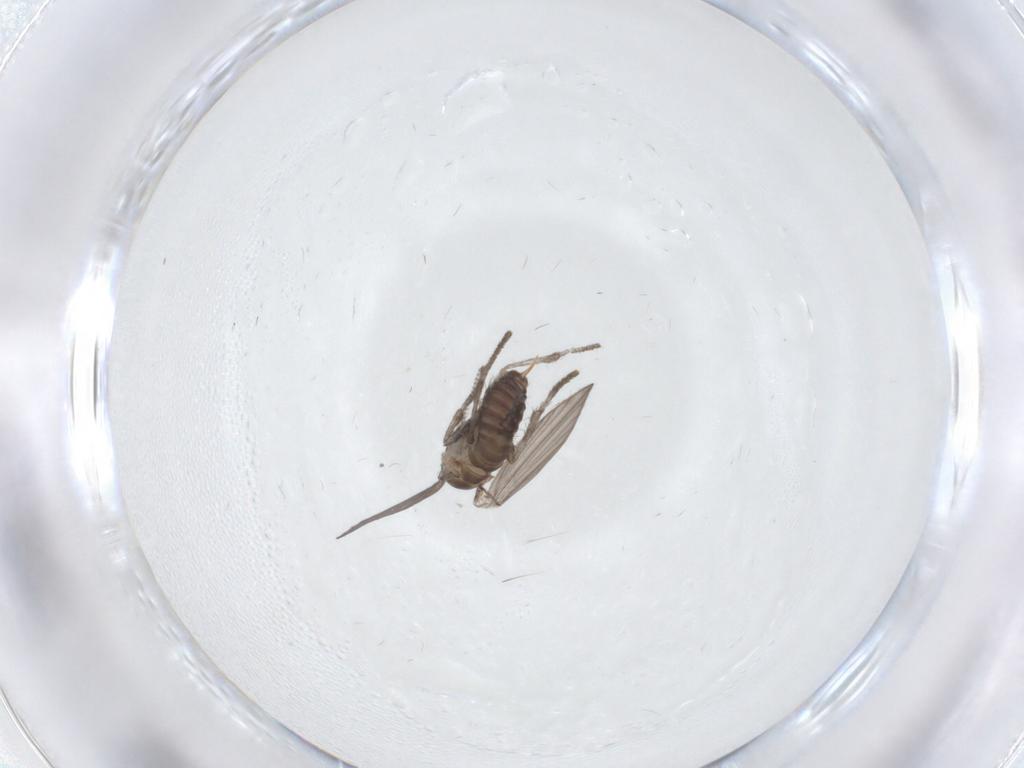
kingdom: Animalia
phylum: Arthropoda
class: Insecta
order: Diptera
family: Psychodidae
